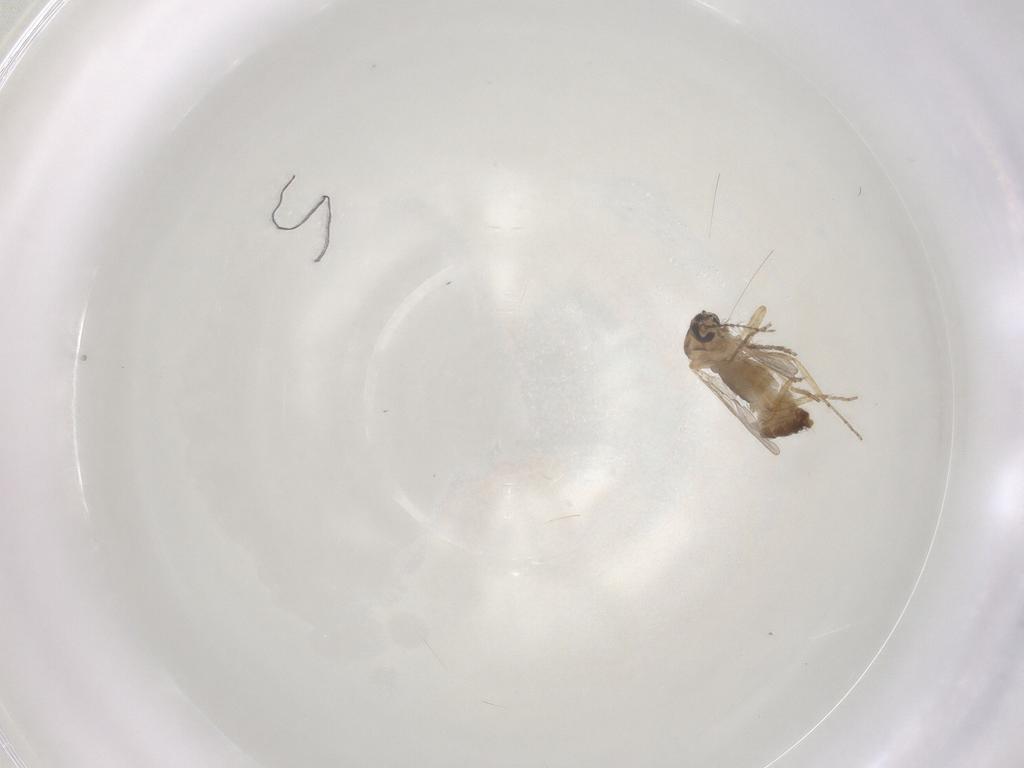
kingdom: Animalia
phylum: Arthropoda
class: Insecta
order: Diptera
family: Ceratopogonidae
